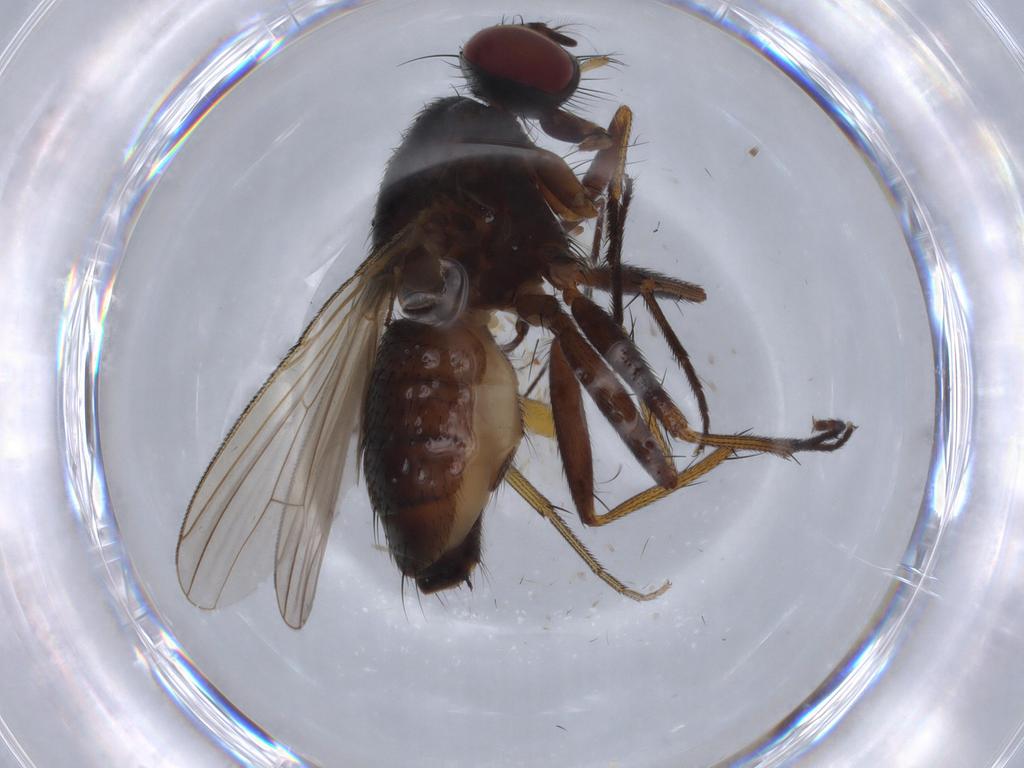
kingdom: Animalia
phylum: Arthropoda
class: Insecta
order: Diptera
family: Muscidae
